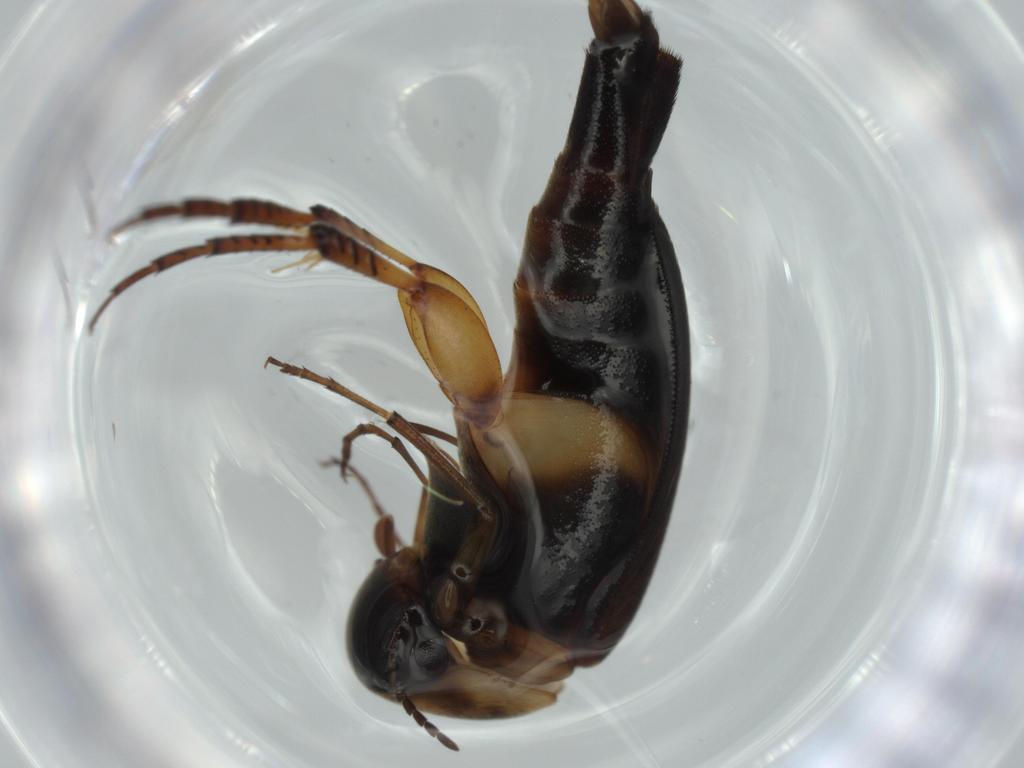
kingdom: Animalia
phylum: Arthropoda
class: Insecta
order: Coleoptera
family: Mordellidae
